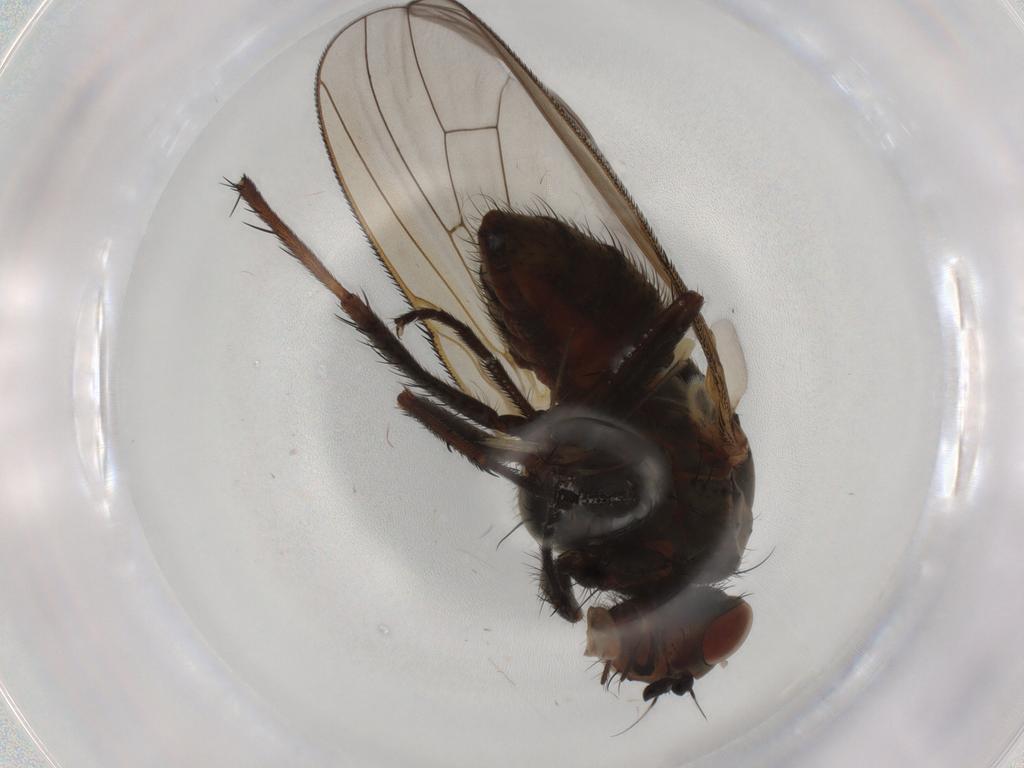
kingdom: Animalia
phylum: Arthropoda
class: Insecta
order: Diptera
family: Anthomyiidae
